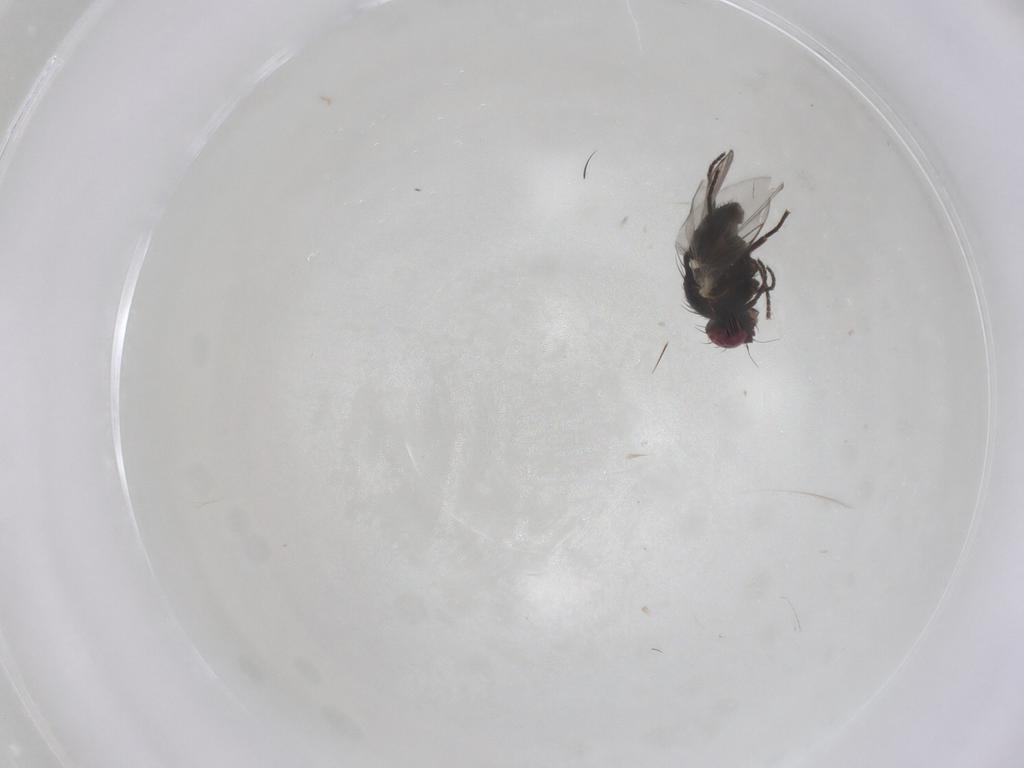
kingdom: Animalia
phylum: Arthropoda
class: Insecta
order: Diptera
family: Agromyzidae
